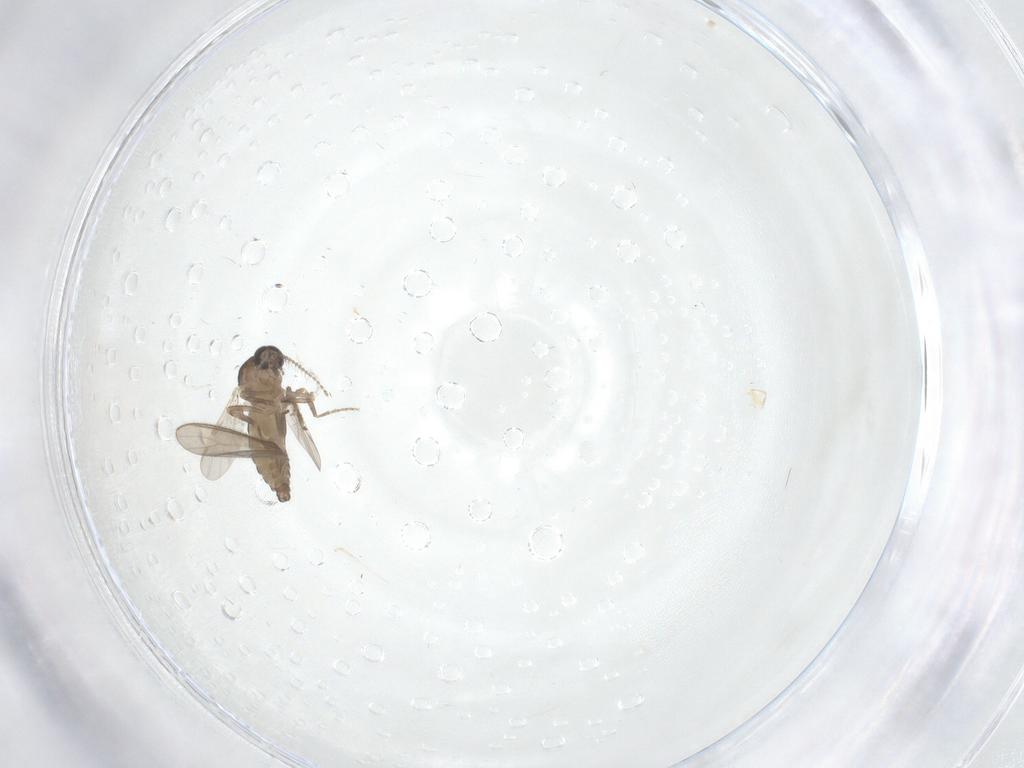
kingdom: Animalia
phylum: Arthropoda
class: Insecta
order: Diptera
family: Ceratopogonidae
